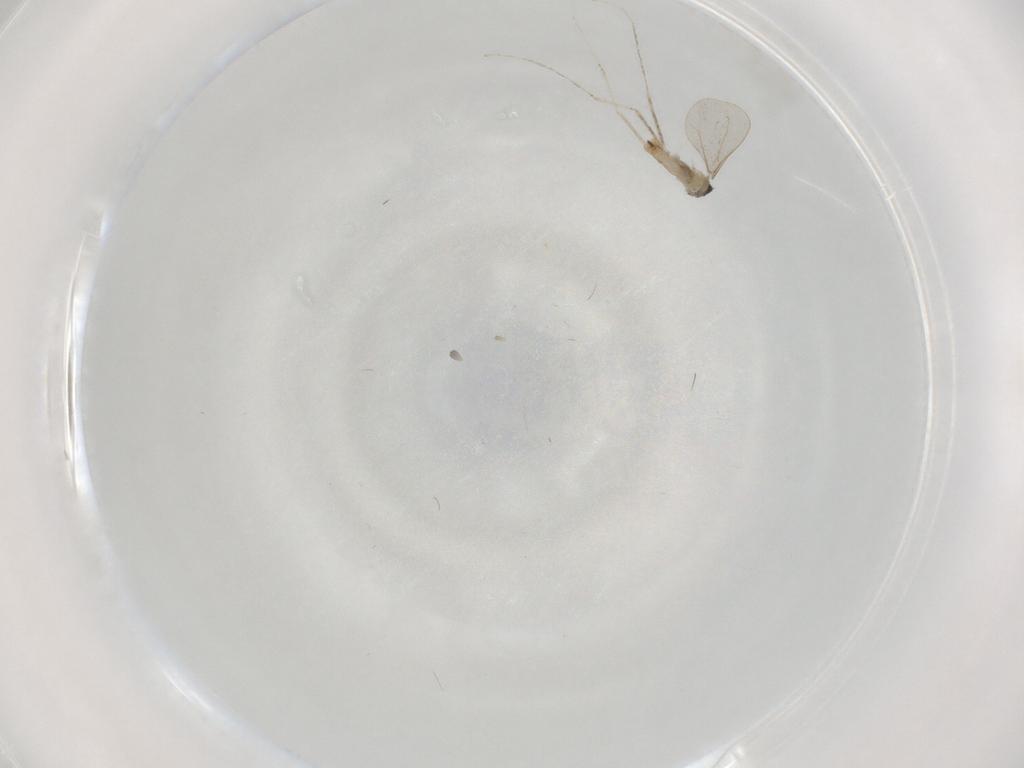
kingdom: Animalia
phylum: Arthropoda
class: Insecta
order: Diptera
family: Cecidomyiidae
